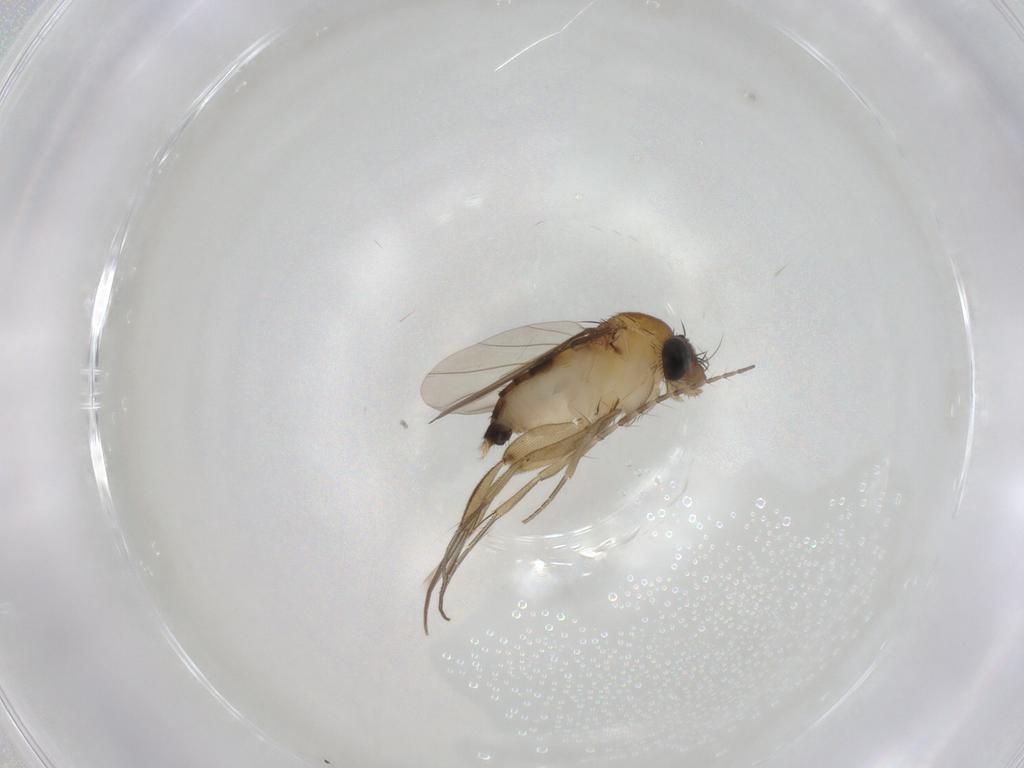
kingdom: Animalia
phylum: Arthropoda
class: Insecta
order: Diptera
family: Phoridae
